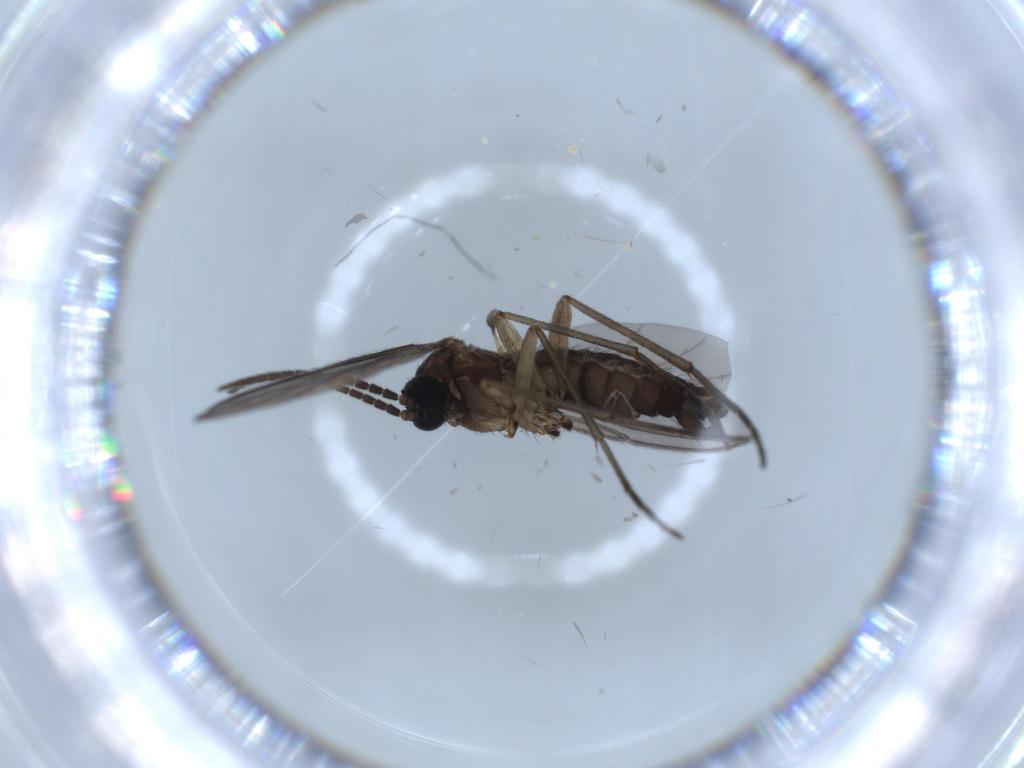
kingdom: Animalia
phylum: Arthropoda
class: Insecta
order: Diptera
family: Sciaridae
